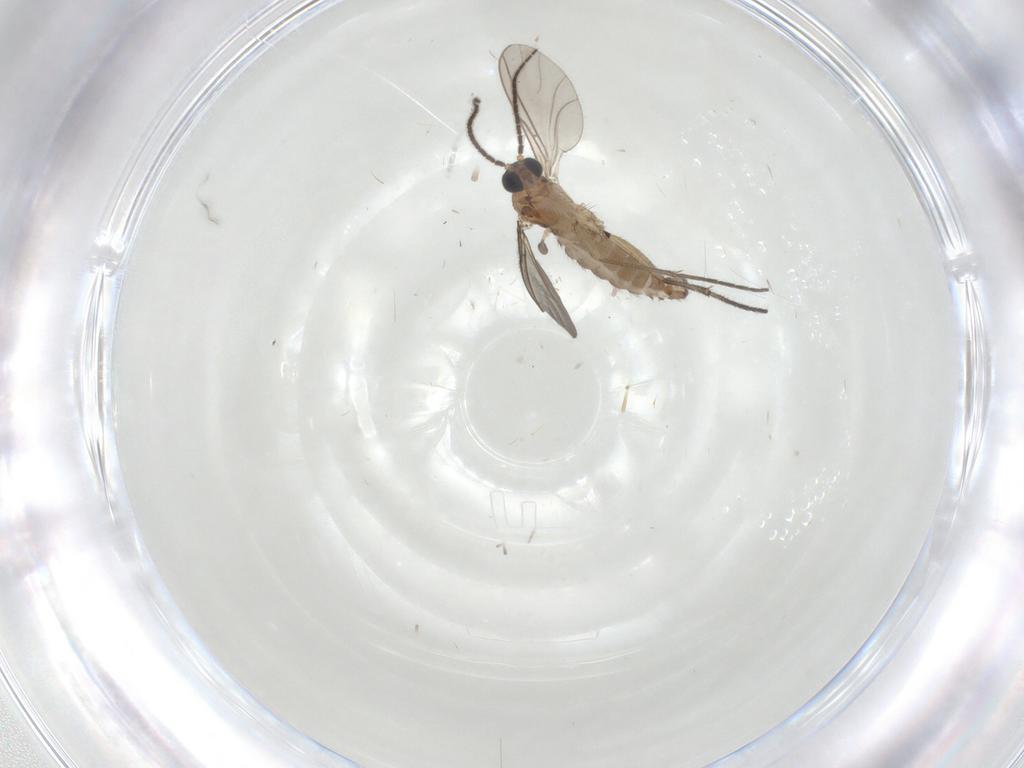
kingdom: Animalia
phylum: Arthropoda
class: Insecta
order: Diptera
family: Sciaridae
